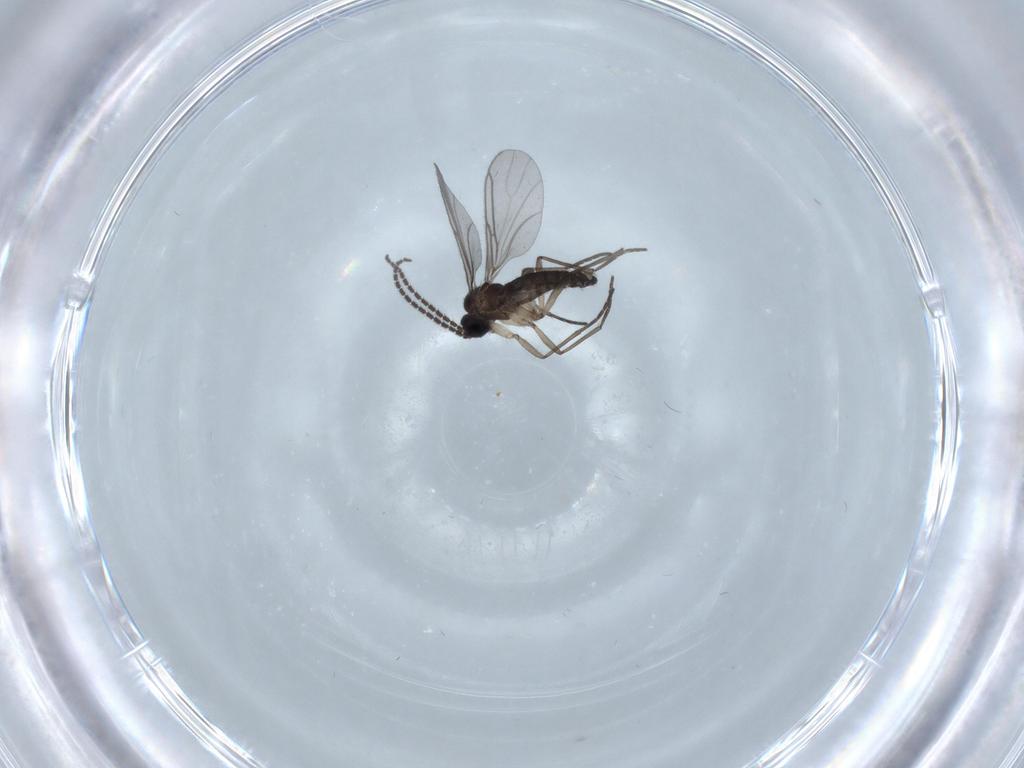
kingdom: Animalia
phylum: Arthropoda
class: Insecta
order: Diptera
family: Sciaridae
